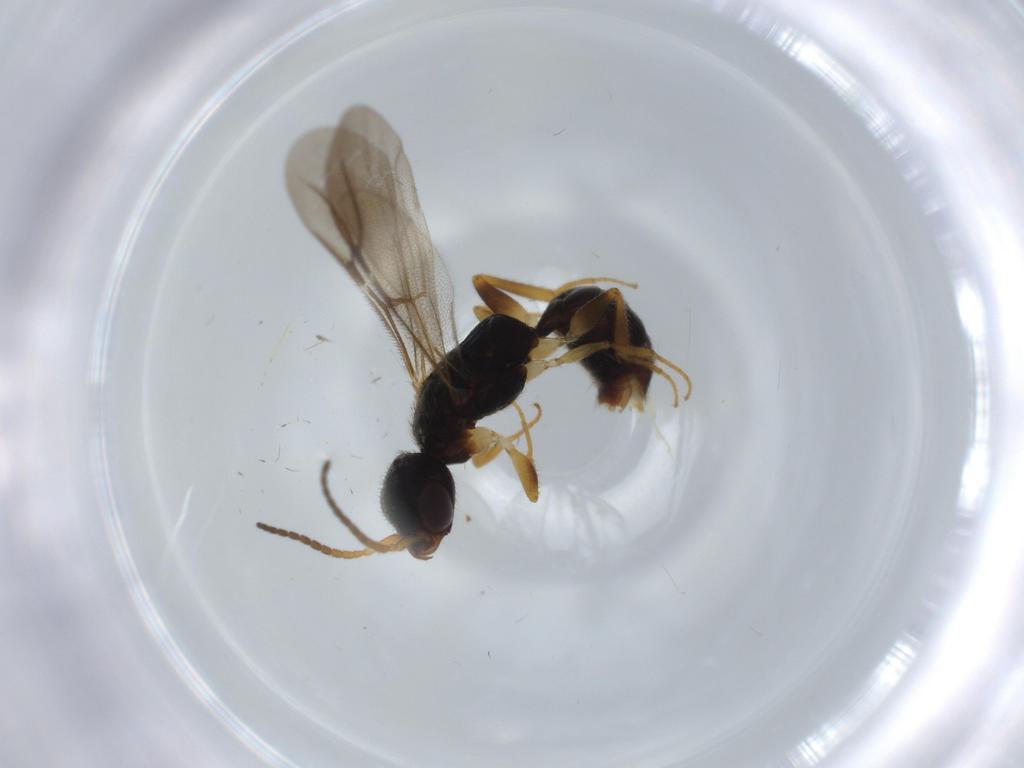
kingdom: Animalia
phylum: Arthropoda
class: Insecta
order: Hymenoptera
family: Bethylidae
